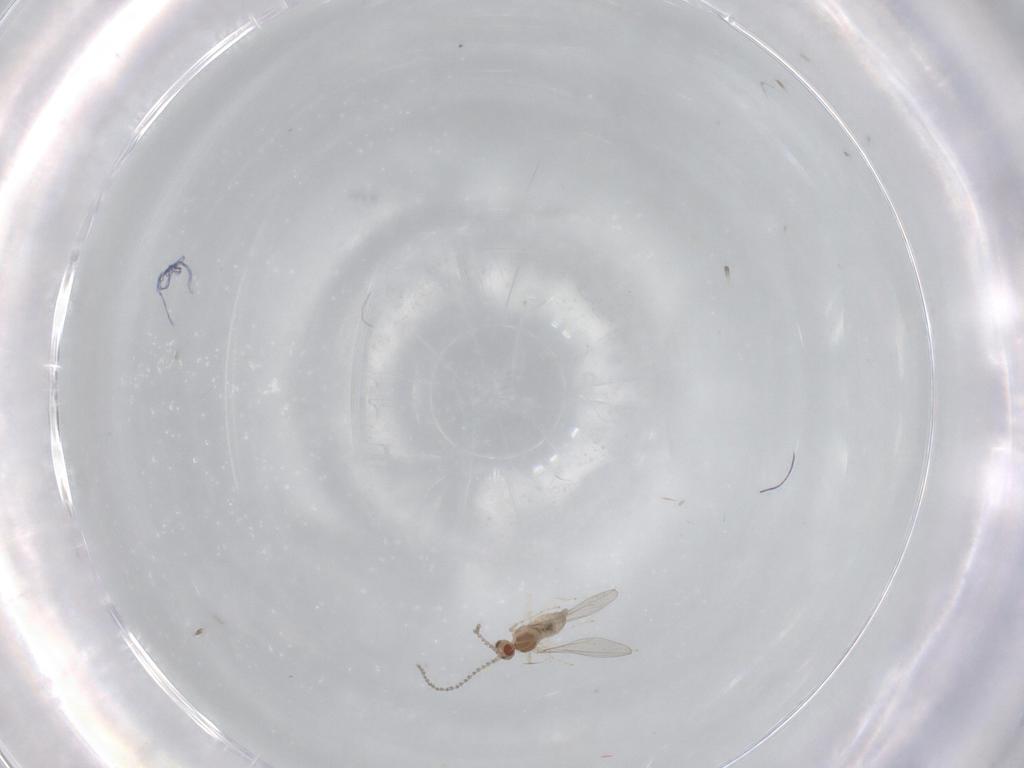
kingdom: Animalia
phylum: Arthropoda
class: Insecta
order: Diptera
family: Cecidomyiidae
